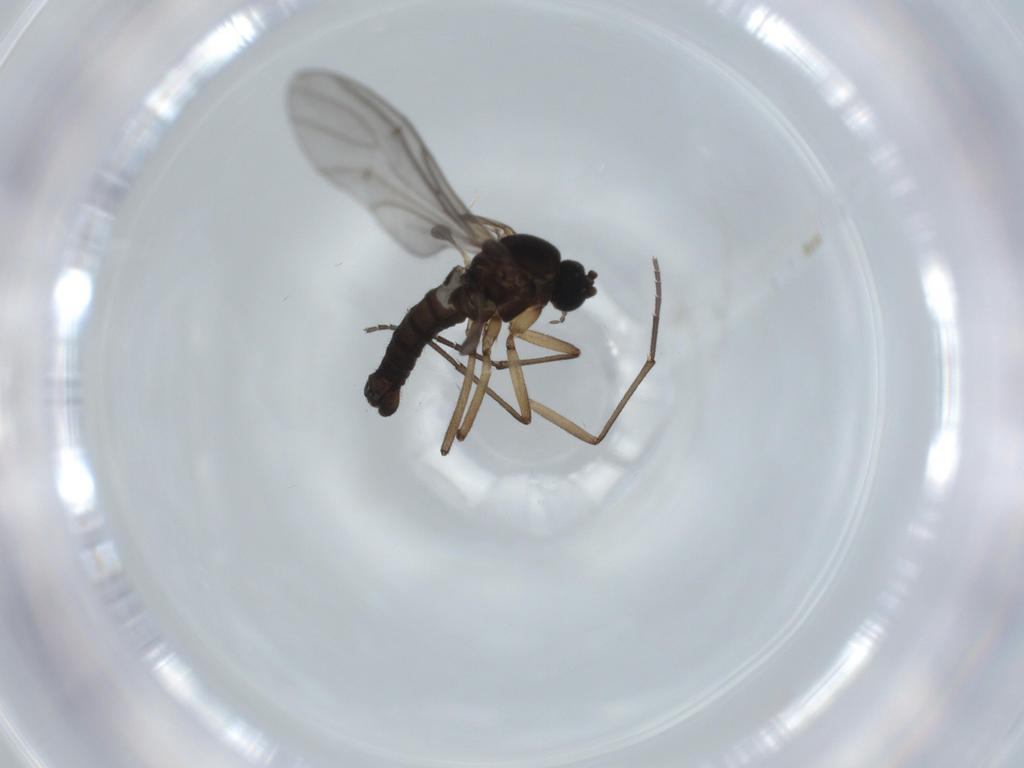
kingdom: Animalia
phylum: Arthropoda
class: Insecta
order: Diptera
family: Sciaridae
